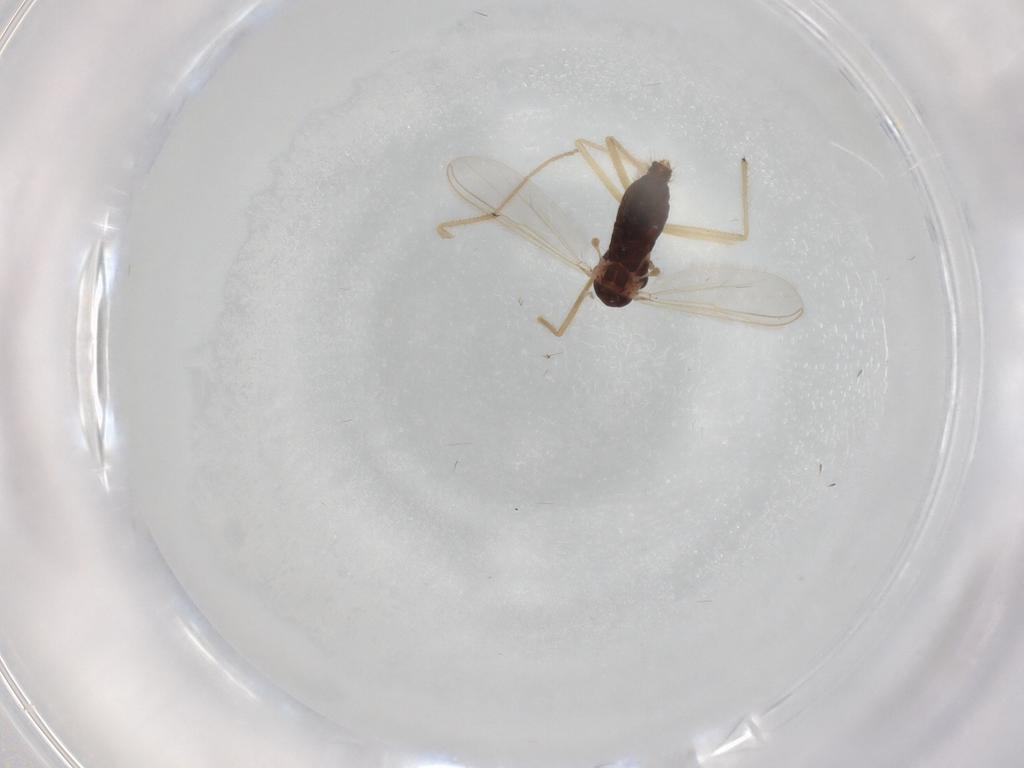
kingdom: Animalia
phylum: Arthropoda
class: Insecta
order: Diptera
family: Chironomidae
